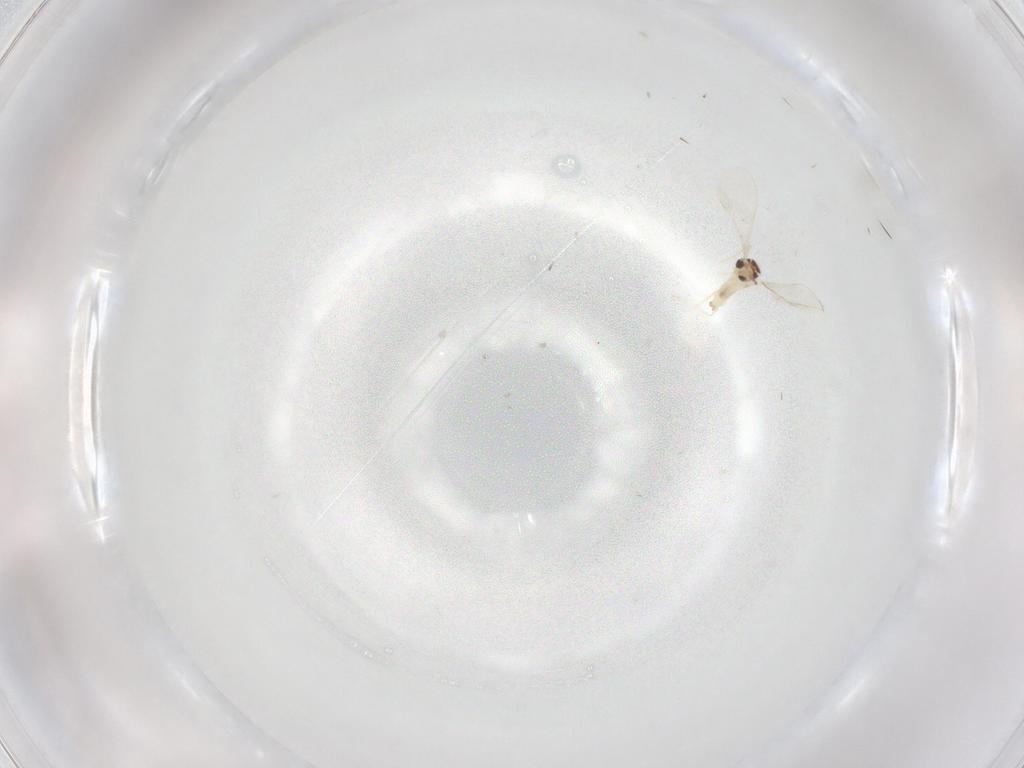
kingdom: Animalia
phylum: Arthropoda
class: Insecta
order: Diptera
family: Cecidomyiidae
